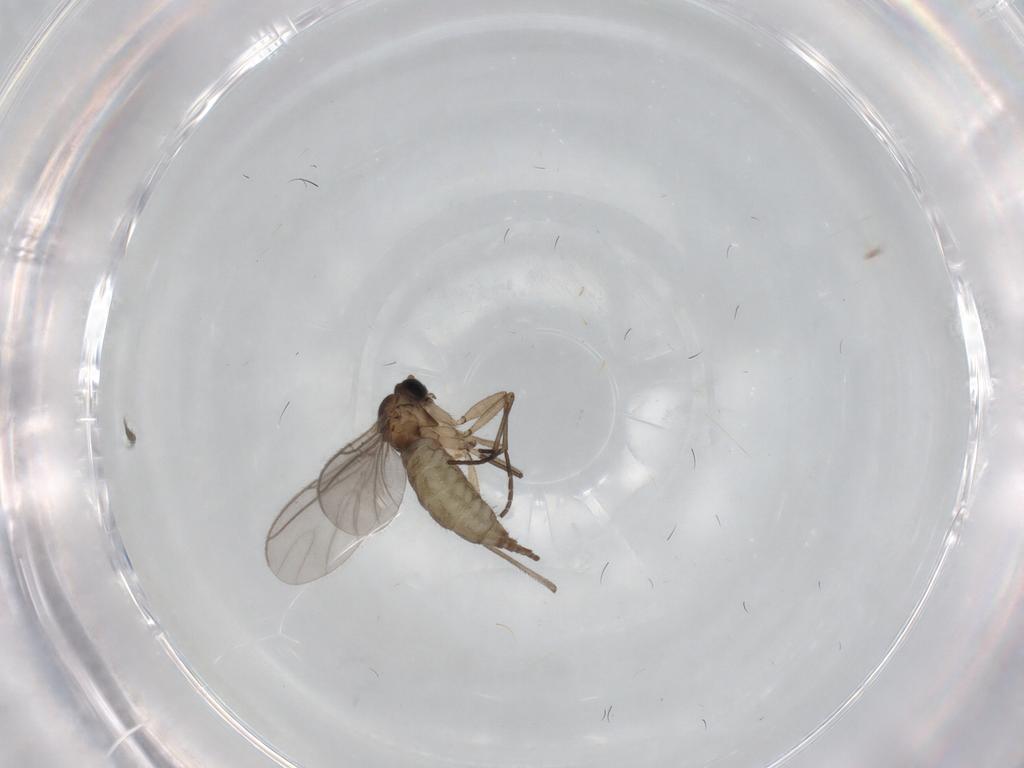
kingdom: Animalia
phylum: Arthropoda
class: Insecta
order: Diptera
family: Sciaridae
